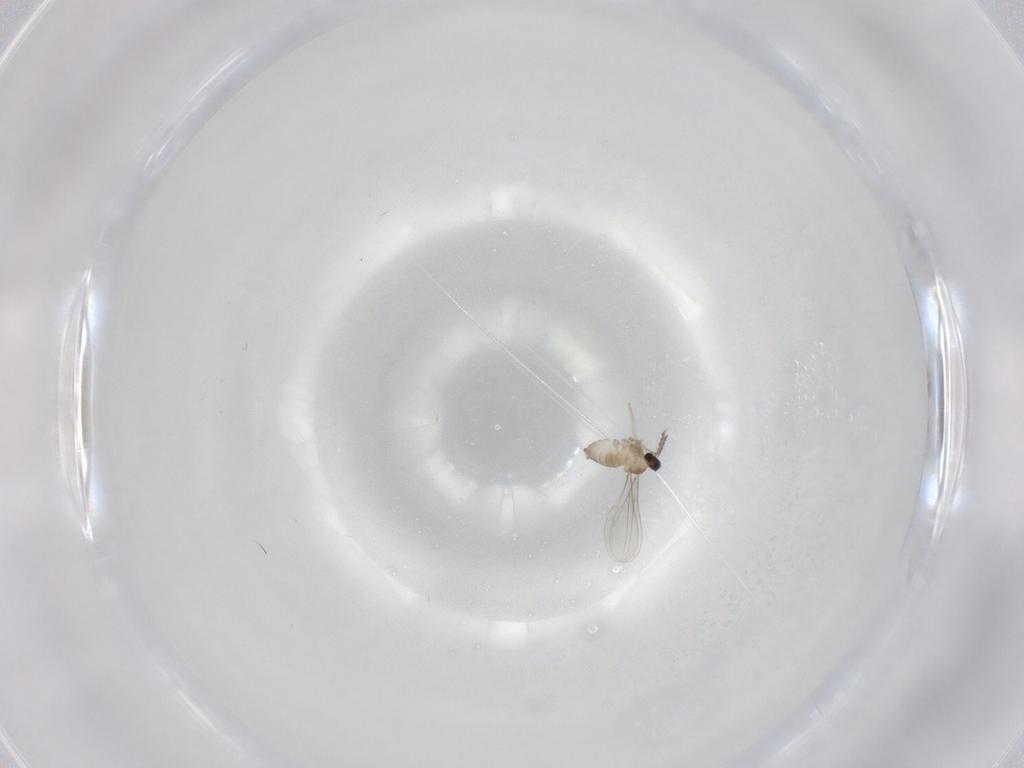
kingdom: Animalia
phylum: Arthropoda
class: Insecta
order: Diptera
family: Cecidomyiidae
